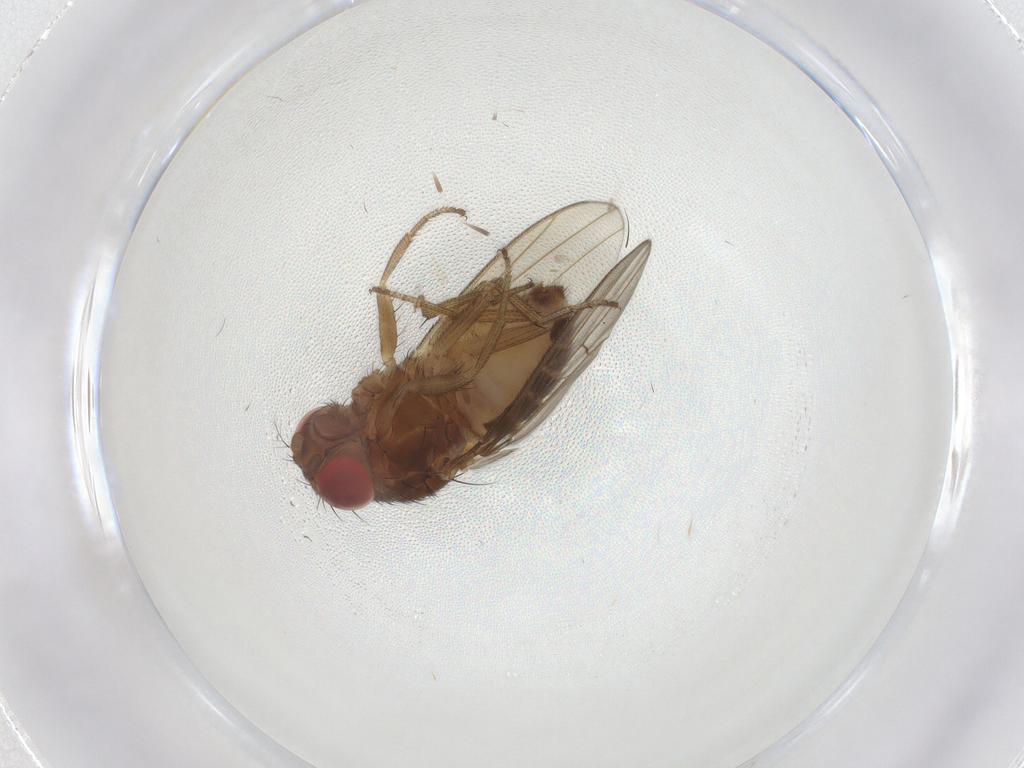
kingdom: Animalia
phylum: Arthropoda
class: Insecta
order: Diptera
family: Drosophilidae
